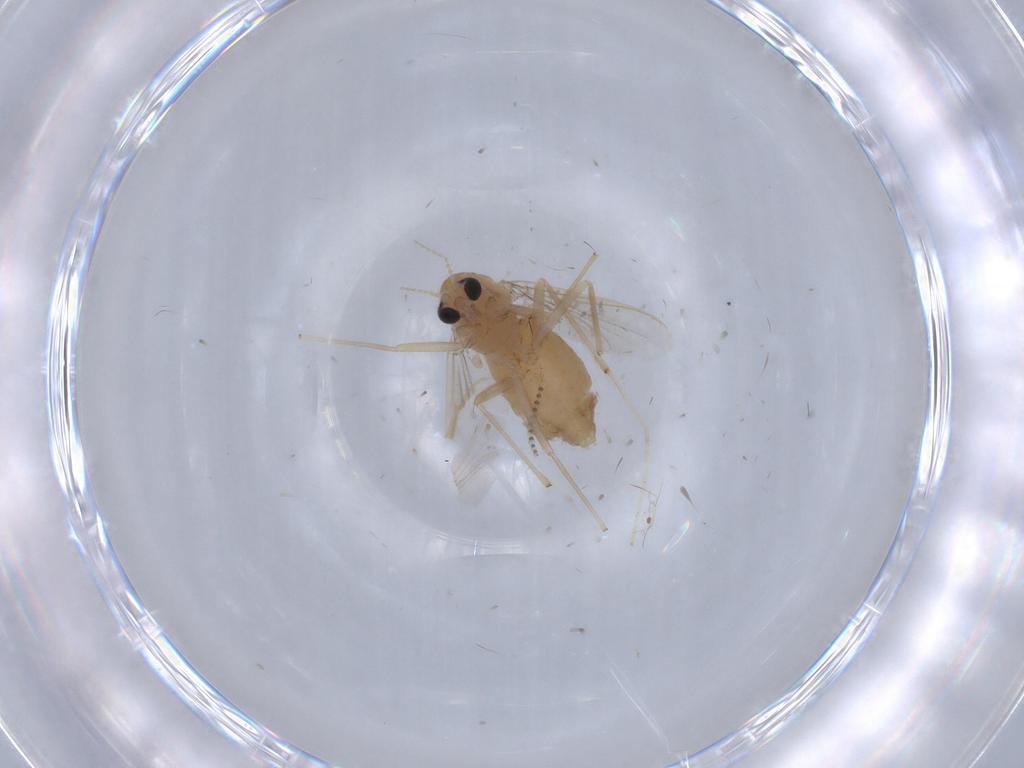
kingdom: Animalia
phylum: Arthropoda
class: Insecta
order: Diptera
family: Chironomidae
